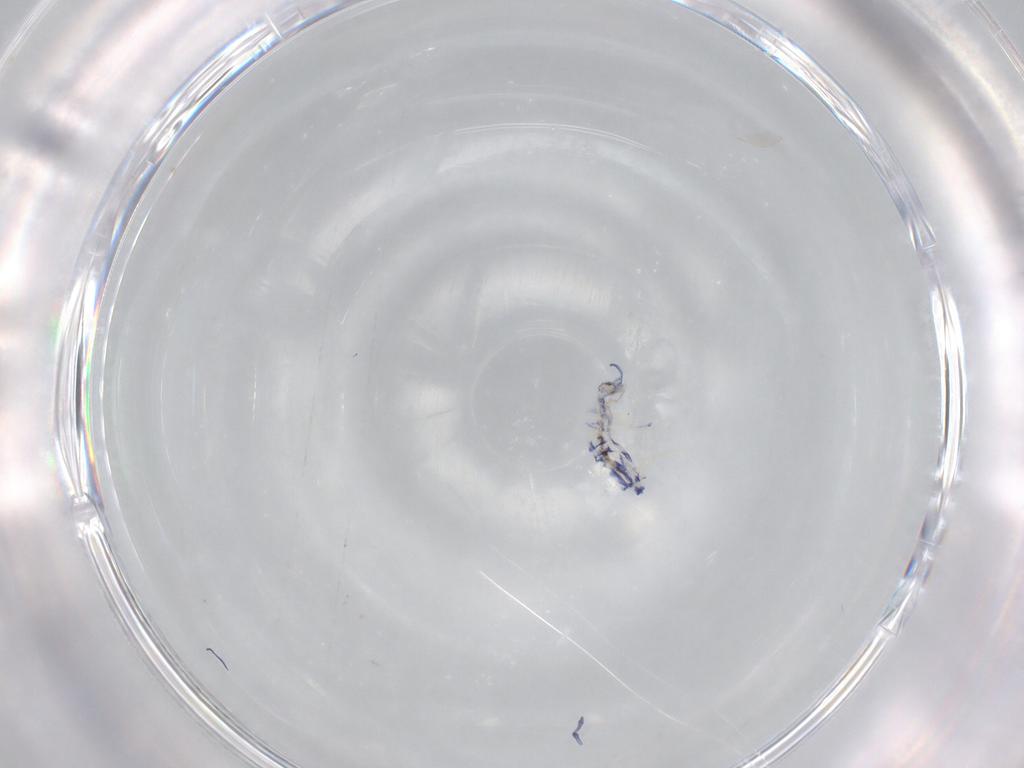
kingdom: Animalia
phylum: Arthropoda
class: Collembola
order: Entomobryomorpha
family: Entomobryidae
